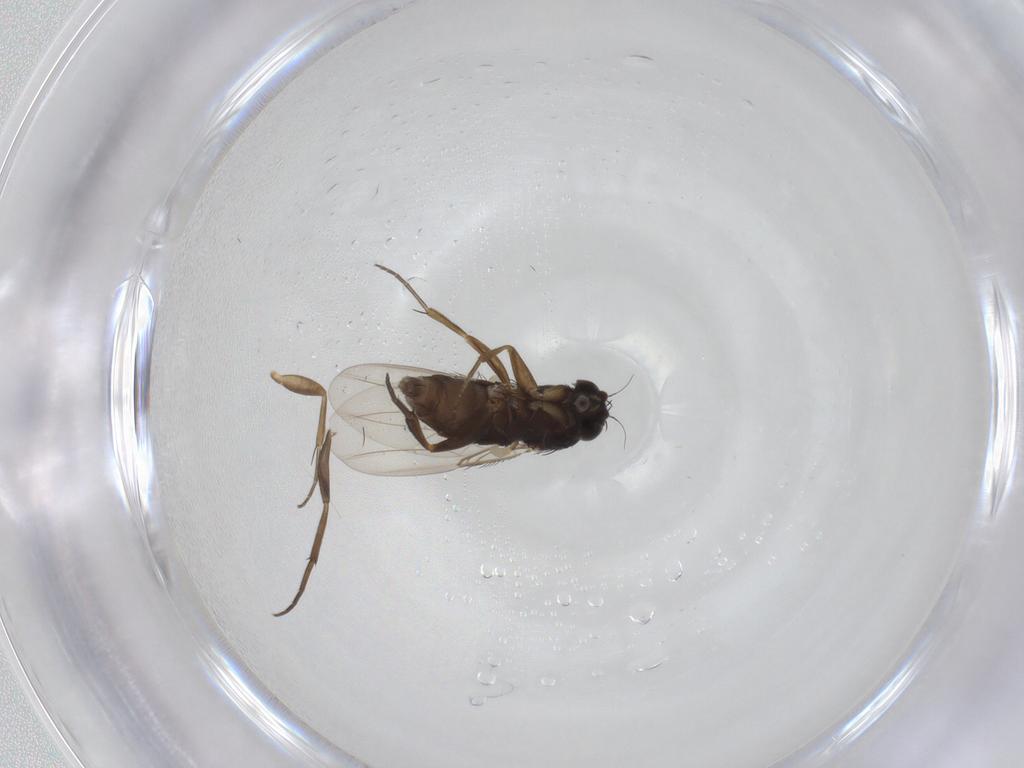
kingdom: Animalia
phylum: Arthropoda
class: Insecta
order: Diptera
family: Phoridae
